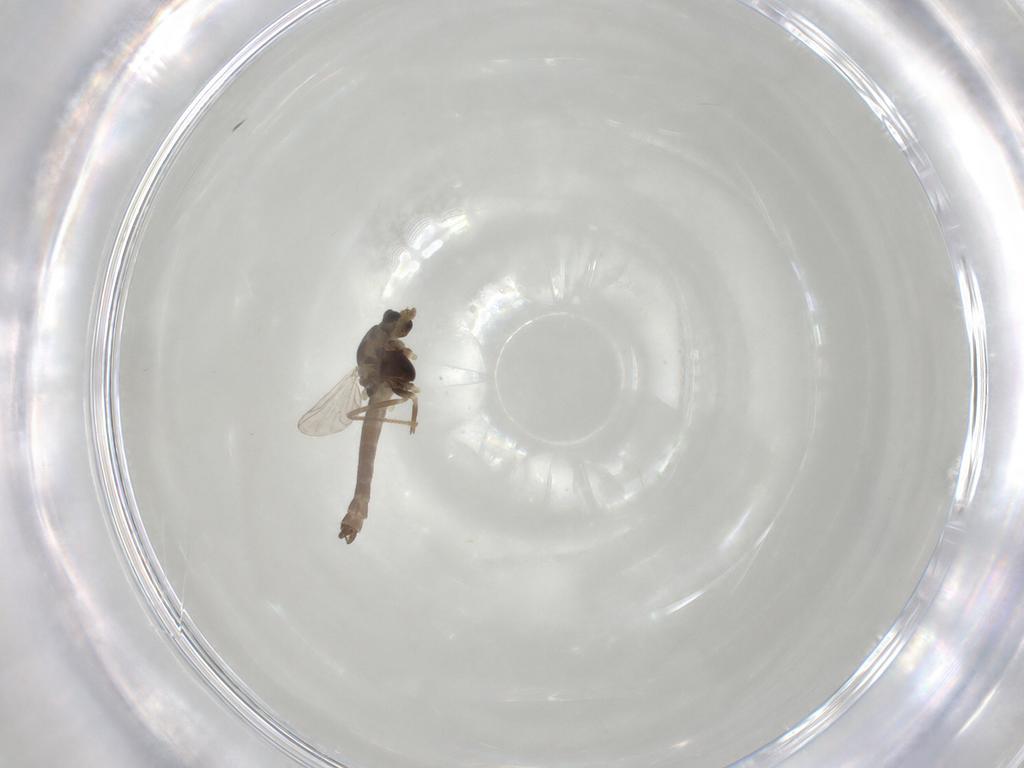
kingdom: Animalia
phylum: Arthropoda
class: Insecta
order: Diptera
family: Chironomidae
